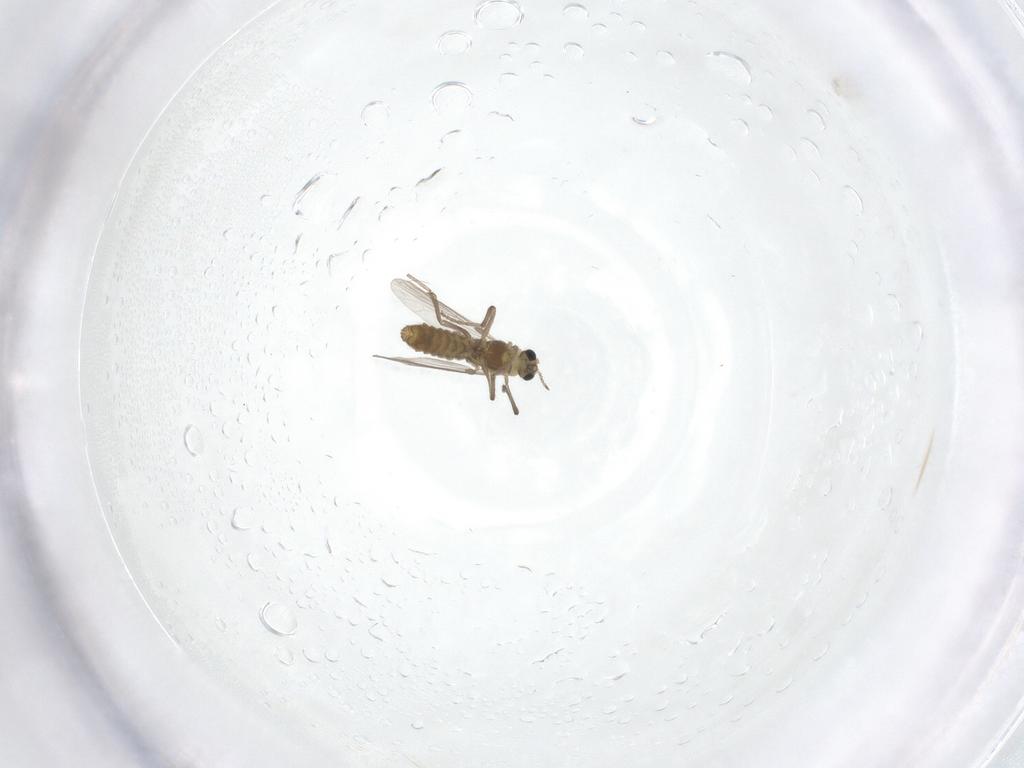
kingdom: Animalia
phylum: Arthropoda
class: Insecta
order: Diptera
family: Chironomidae
